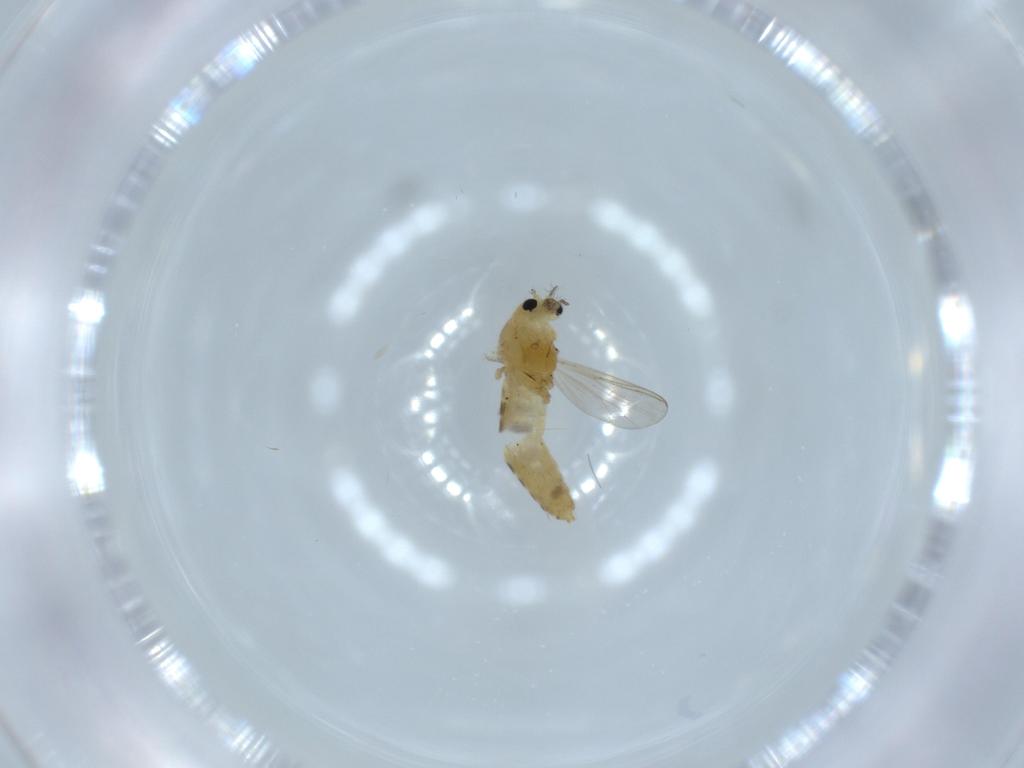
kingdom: Animalia
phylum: Arthropoda
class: Insecta
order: Diptera
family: Chironomidae
